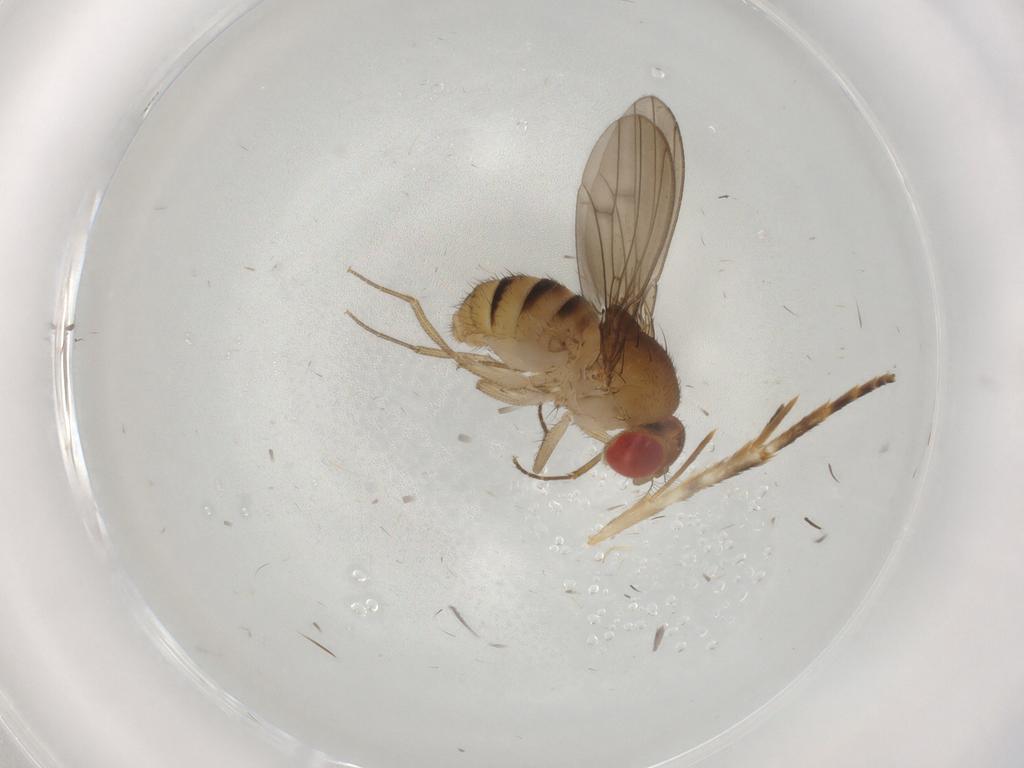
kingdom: Animalia
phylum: Arthropoda
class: Insecta
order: Diptera
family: Drosophilidae
